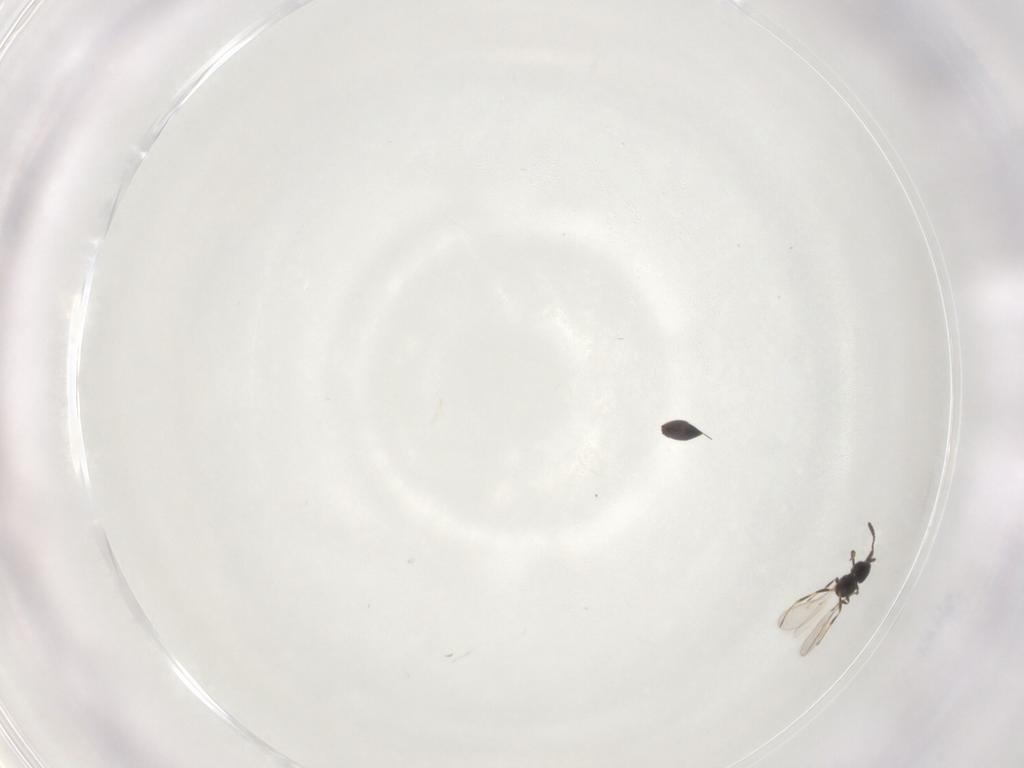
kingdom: Animalia
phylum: Arthropoda
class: Insecta
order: Hymenoptera
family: Scelionidae
